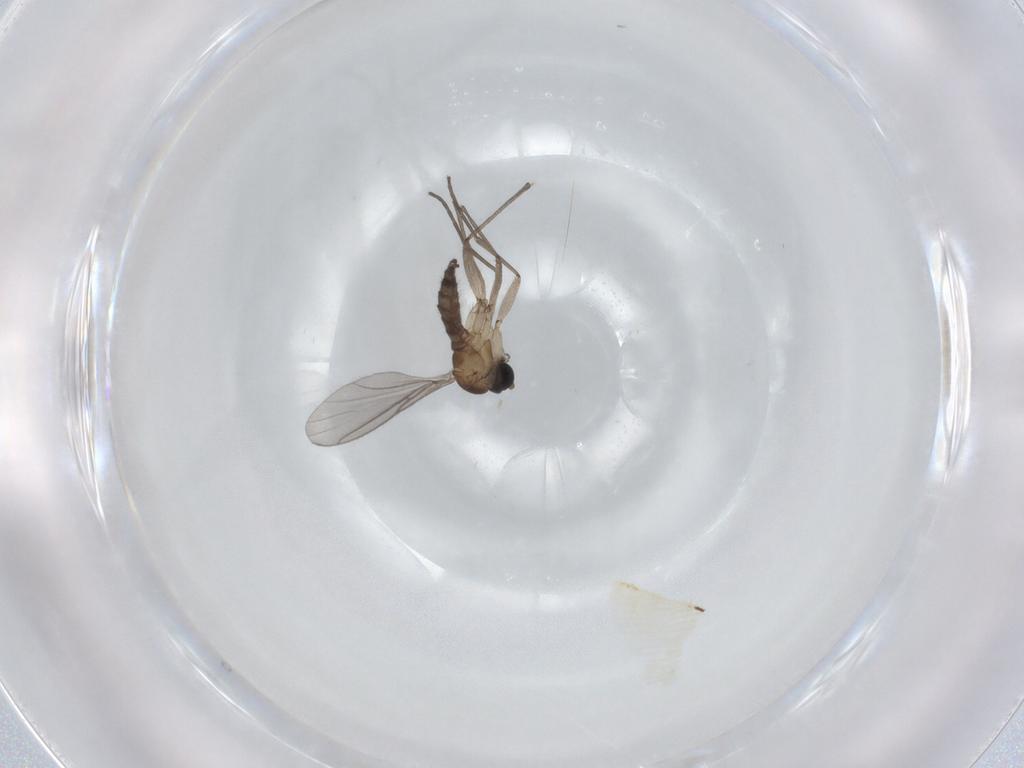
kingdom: Animalia
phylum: Arthropoda
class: Insecta
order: Diptera
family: Sciaridae
